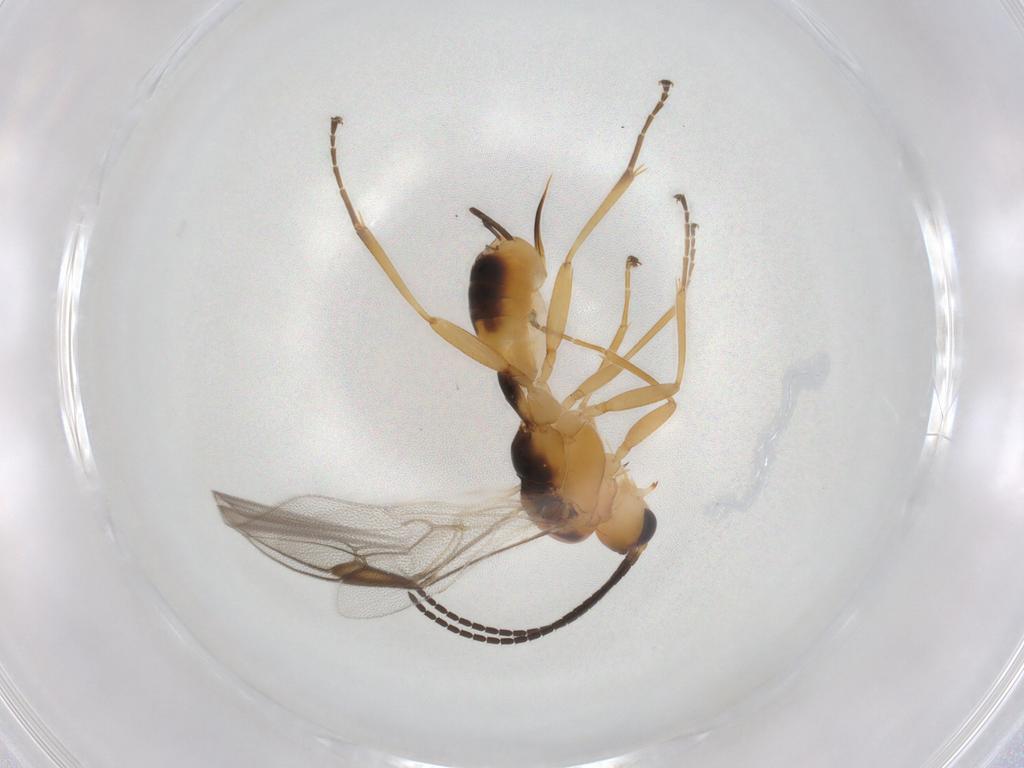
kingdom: Animalia
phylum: Arthropoda
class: Insecta
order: Hymenoptera
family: Braconidae
